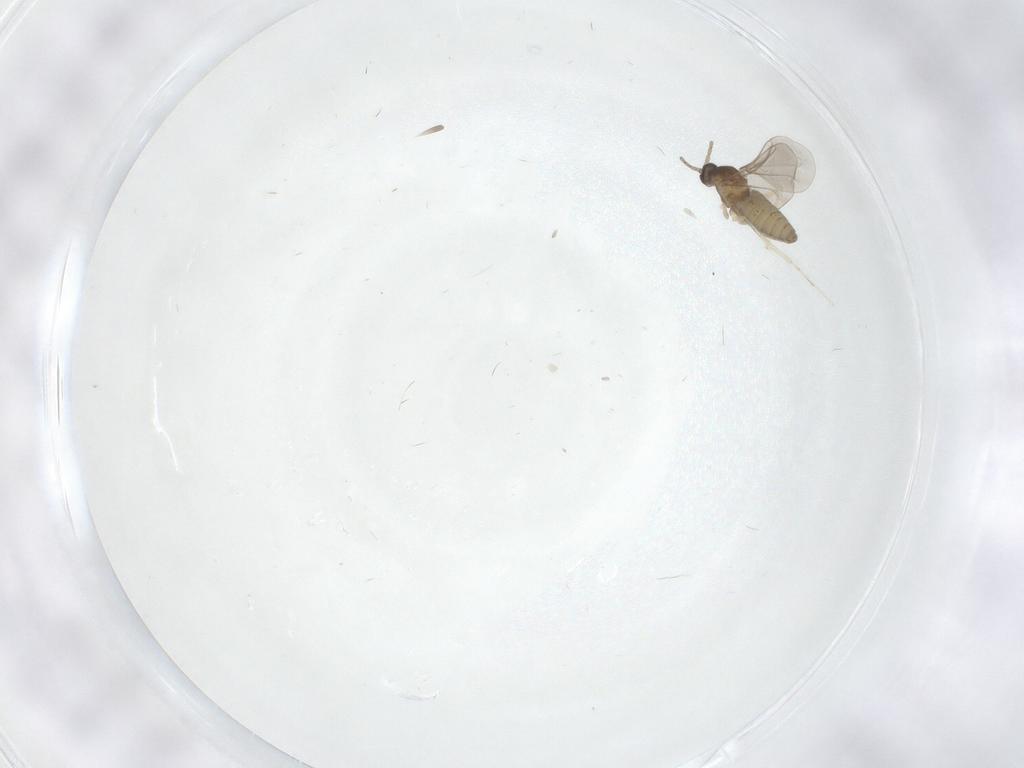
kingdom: Animalia
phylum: Arthropoda
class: Insecta
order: Diptera
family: Cecidomyiidae
